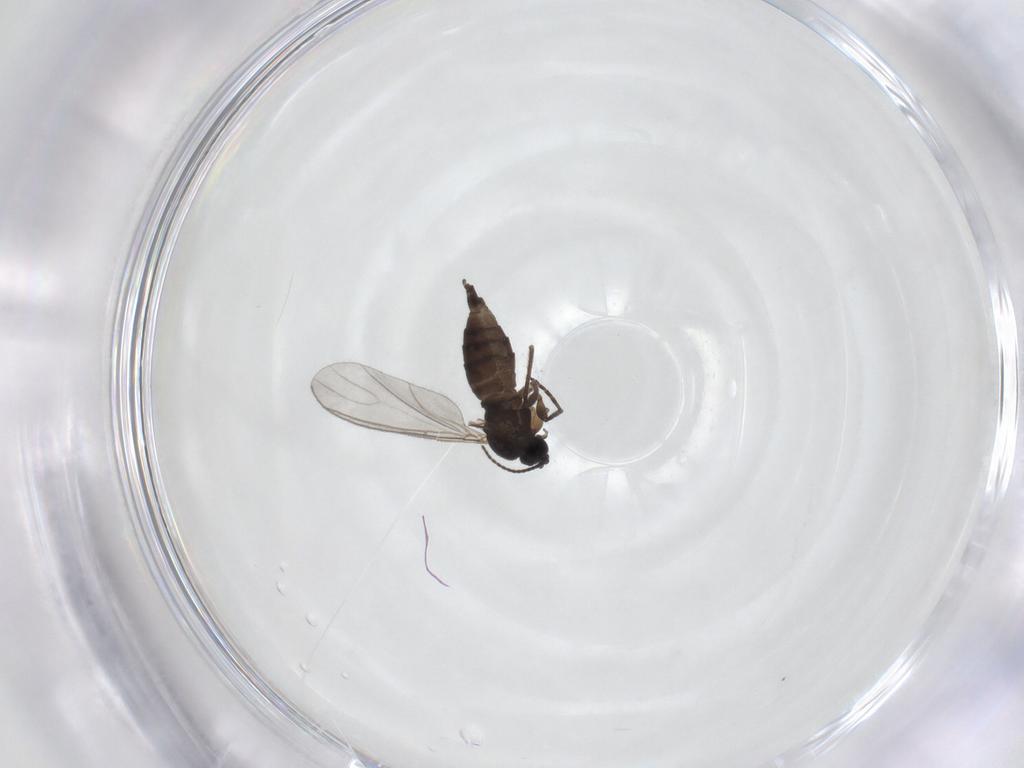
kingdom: Animalia
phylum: Arthropoda
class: Insecta
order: Diptera
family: Sciaridae
